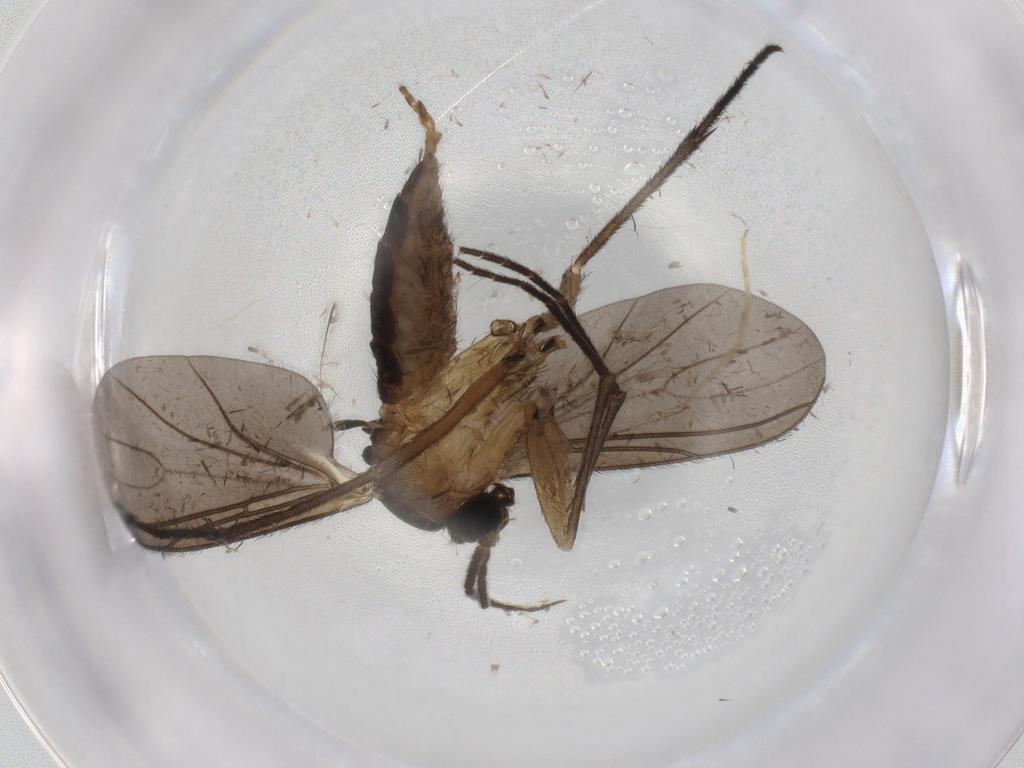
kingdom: Animalia
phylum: Arthropoda
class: Insecta
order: Diptera
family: Sciaridae
